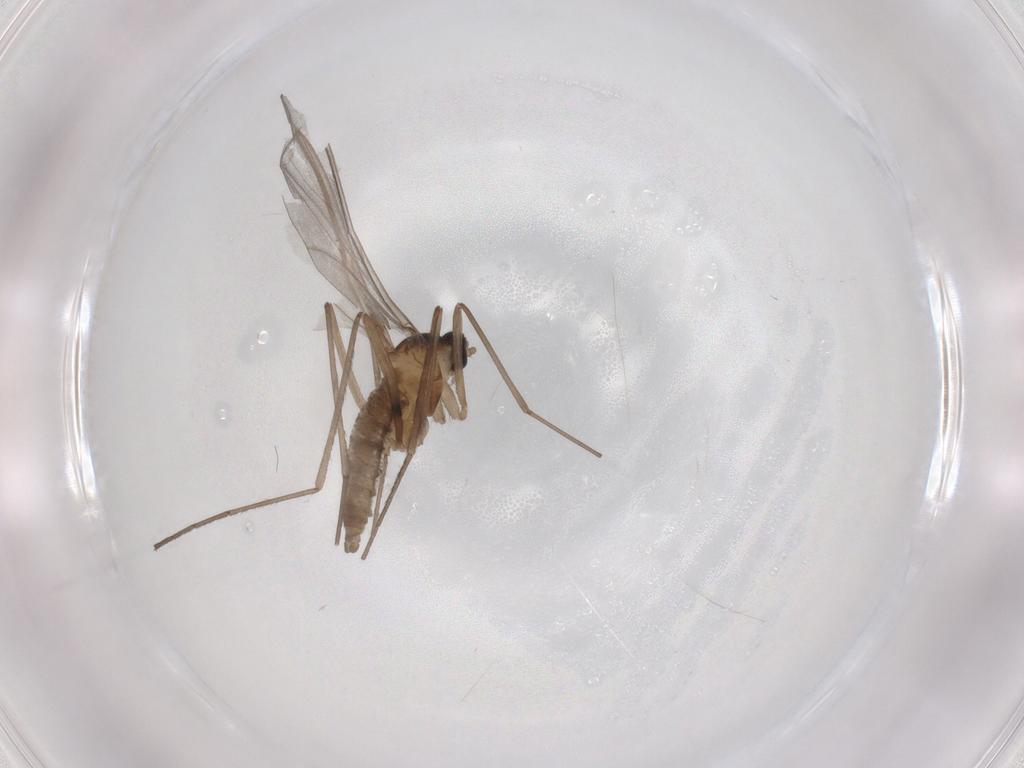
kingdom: Animalia
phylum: Arthropoda
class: Insecta
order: Diptera
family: Cecidomyiidae
